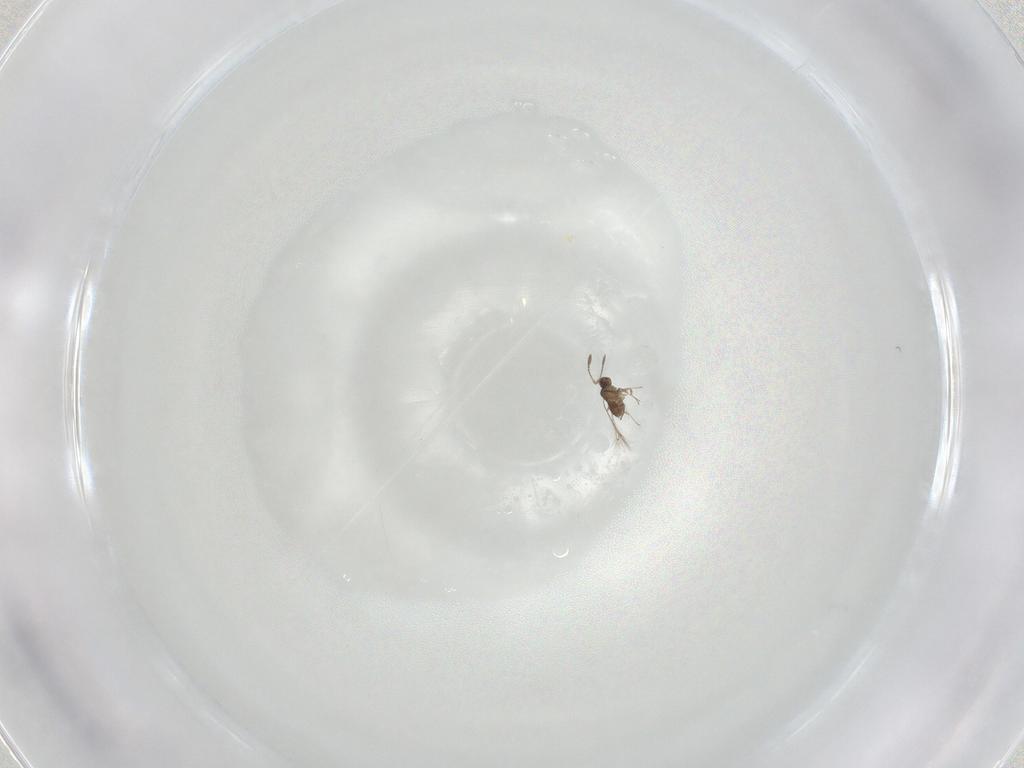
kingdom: Animalia
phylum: Arthropoda
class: Insecta
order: Hymenoptera
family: Mymaridae
